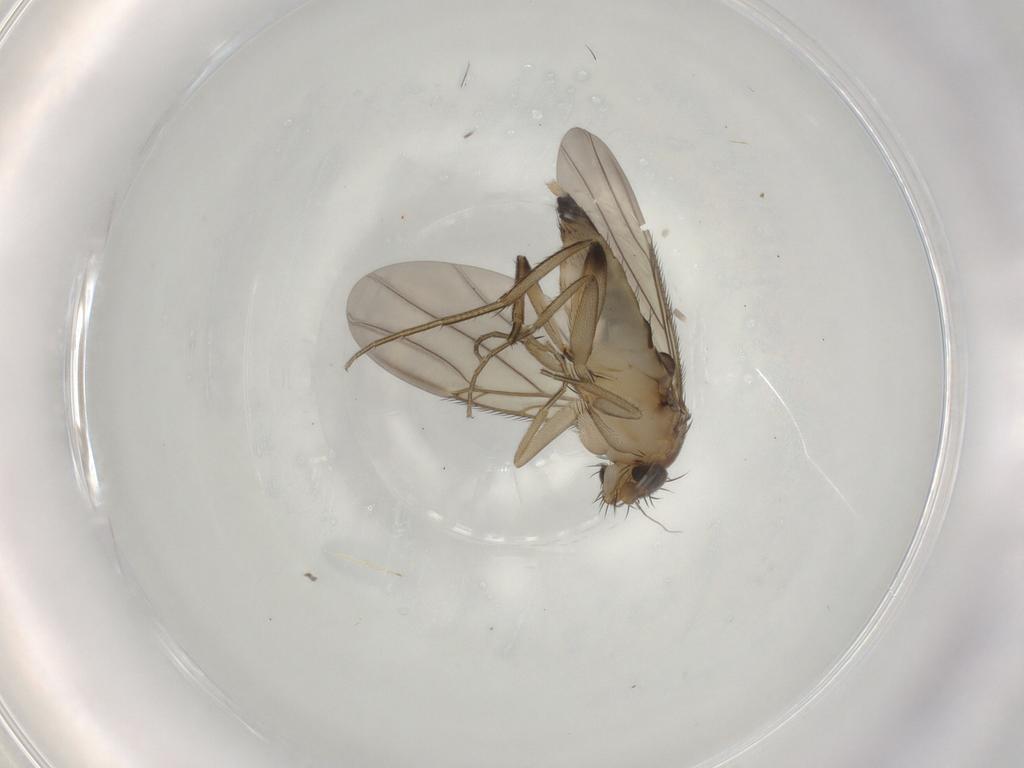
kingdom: Animalia
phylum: Arthropoda
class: Insecta
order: Diptera
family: Phoridae
